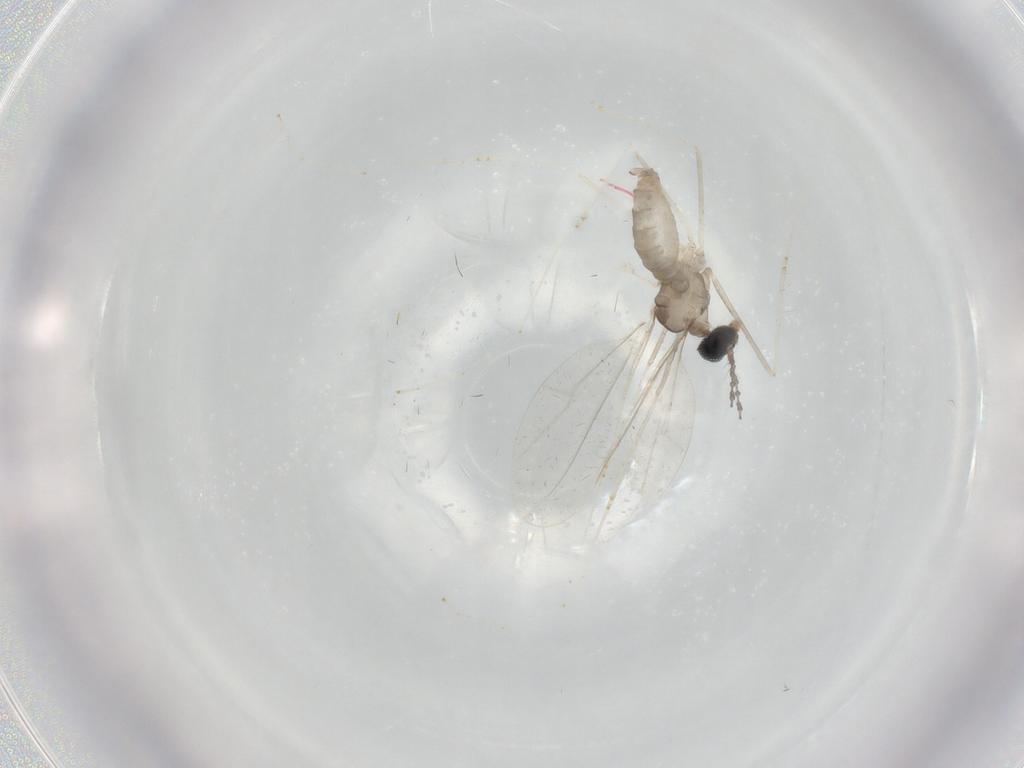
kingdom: Animalia
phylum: Arthropoda
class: Insecta
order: Diptera
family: Cecidomyiidae
